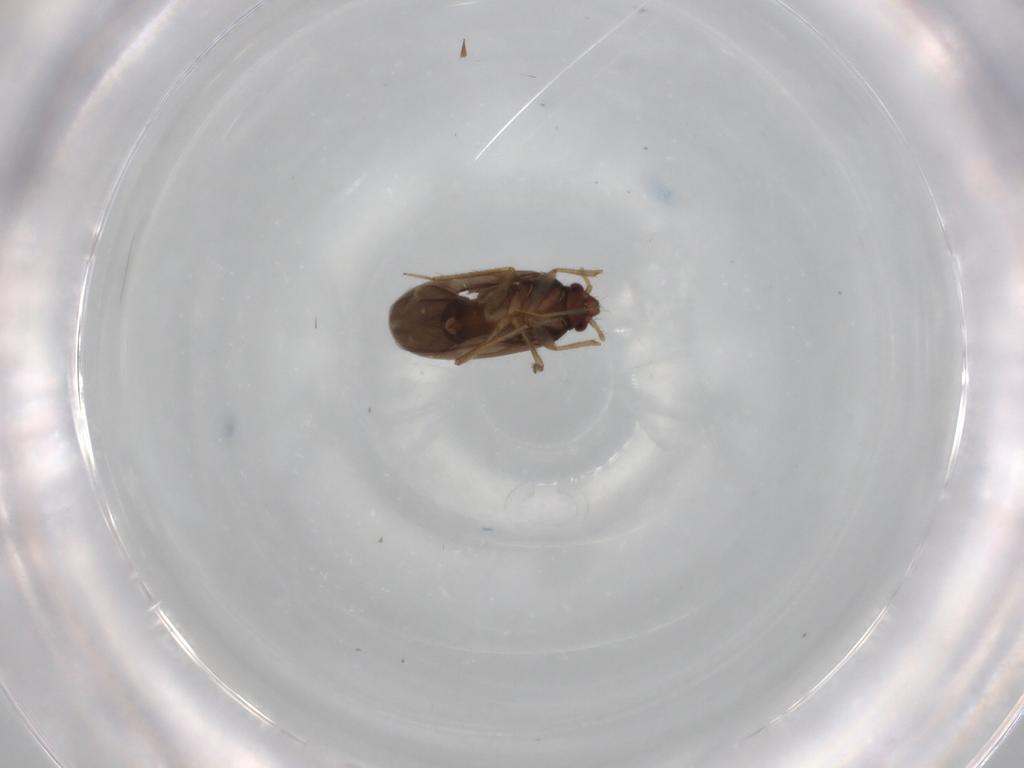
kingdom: Animalia
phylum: Arthropoda
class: Insecta
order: Hemiptera
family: Ceratocombidae
